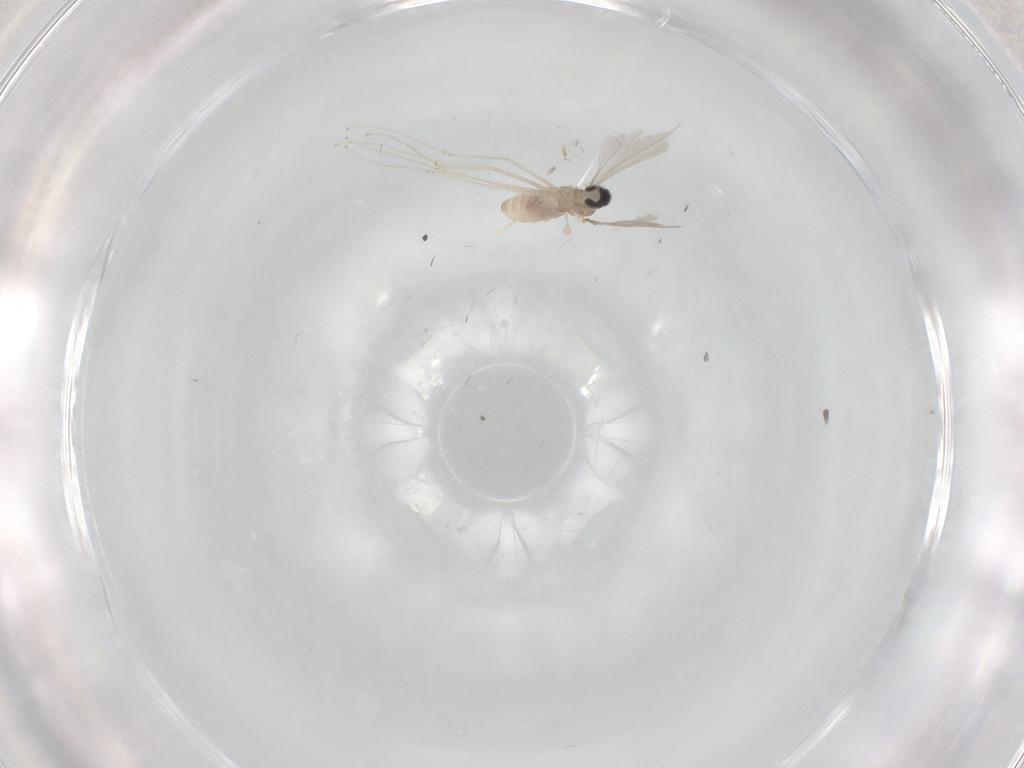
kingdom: Animalia
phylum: Arthropoda
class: Insecta
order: Diptera
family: Cecidomyiidae
